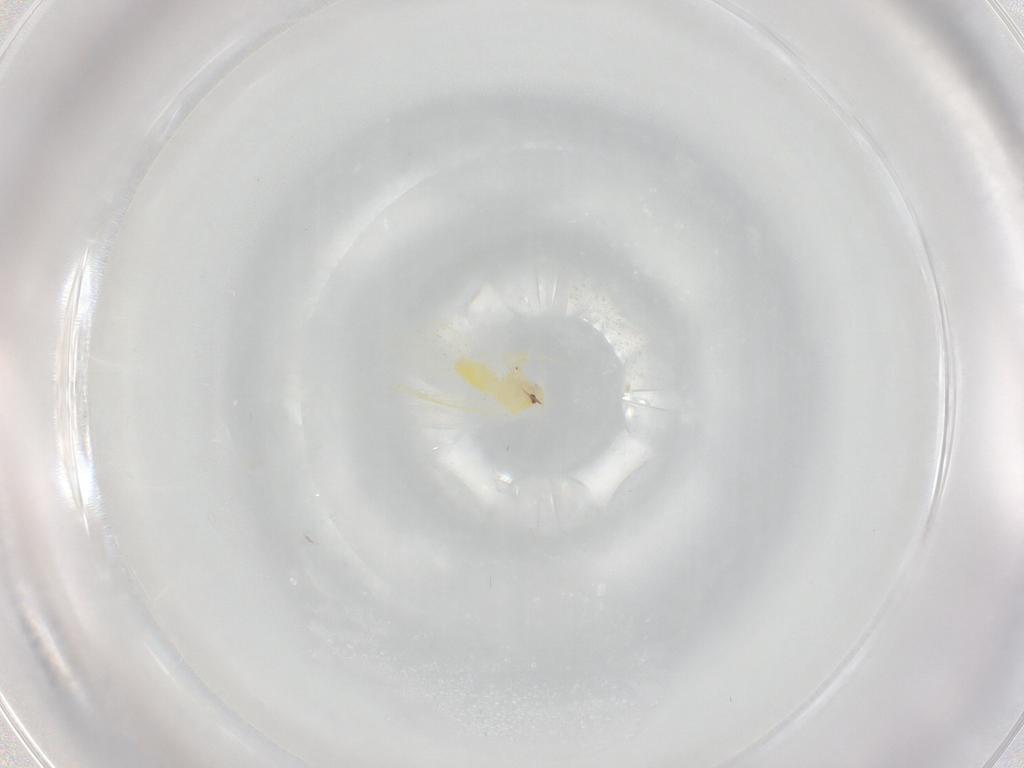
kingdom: Animalia
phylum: Arthropoda
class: Insecta
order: Hemiptera
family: Aleyrodidae
